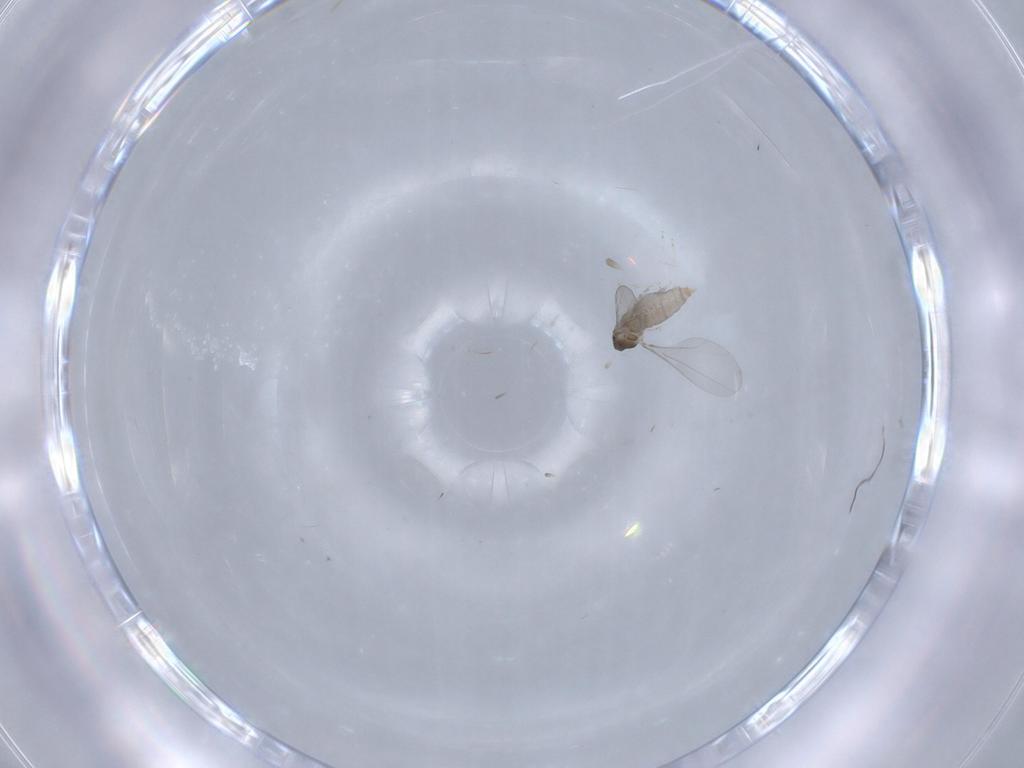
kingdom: Animalia
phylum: Arthropoda
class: Insecta
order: Diptera
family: Cecidomyiidae
